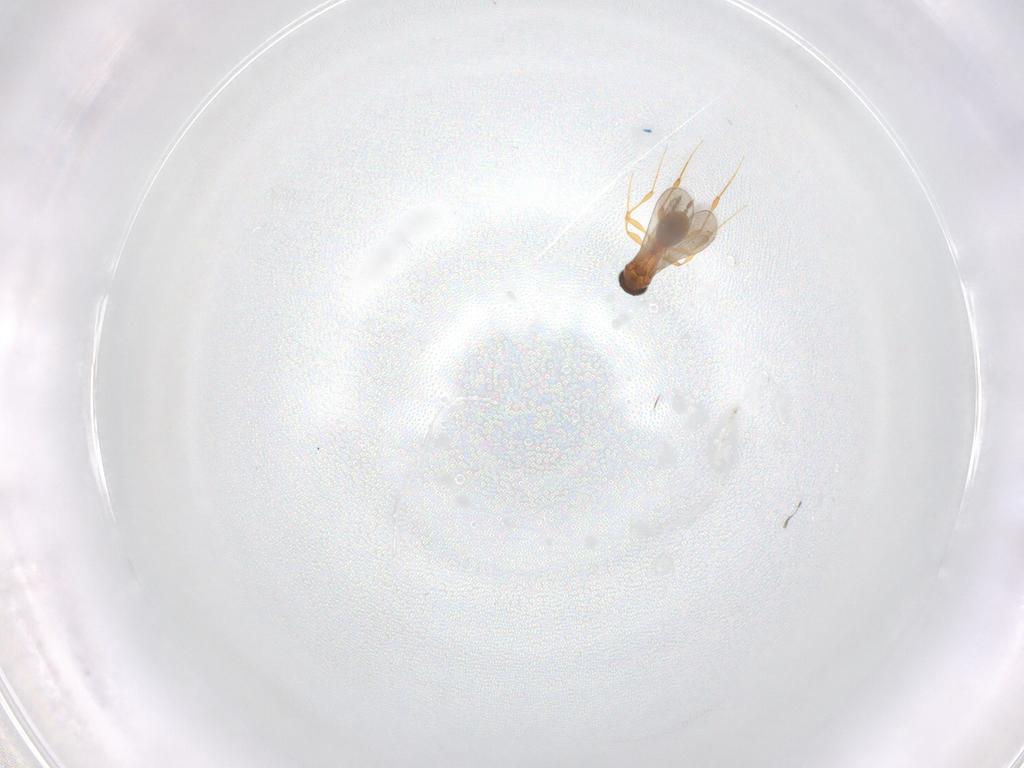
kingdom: Animalia
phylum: Arthropoda
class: Insecta
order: Hymenoptera
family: Platygastridae
